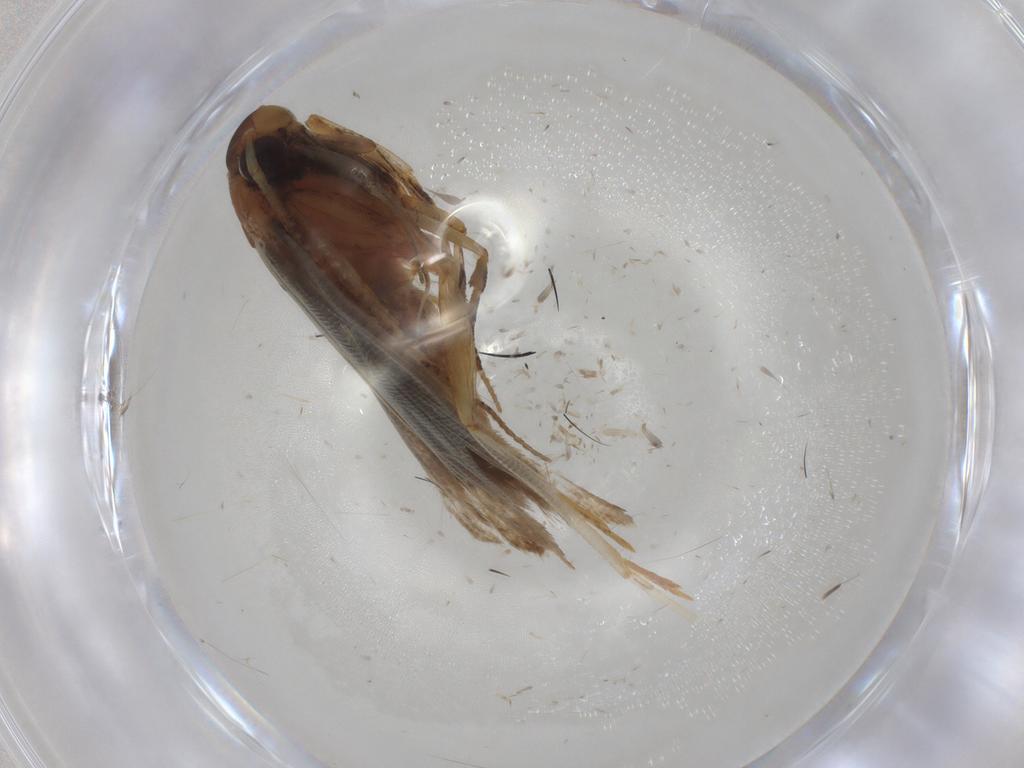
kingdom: Animalia
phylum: Arthropoda
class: Insecta
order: Lepidoptera
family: Gelechiidae
